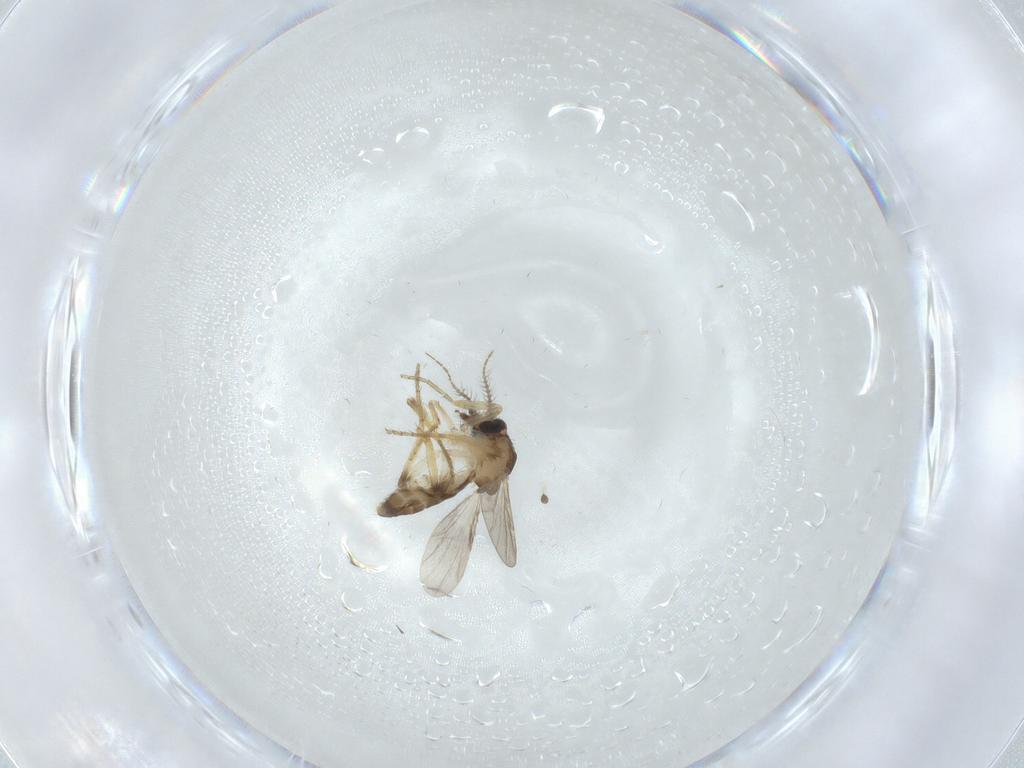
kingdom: Animalia
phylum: Arthropoda
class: Insecta
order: Diptera
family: Ceratopogonidae
